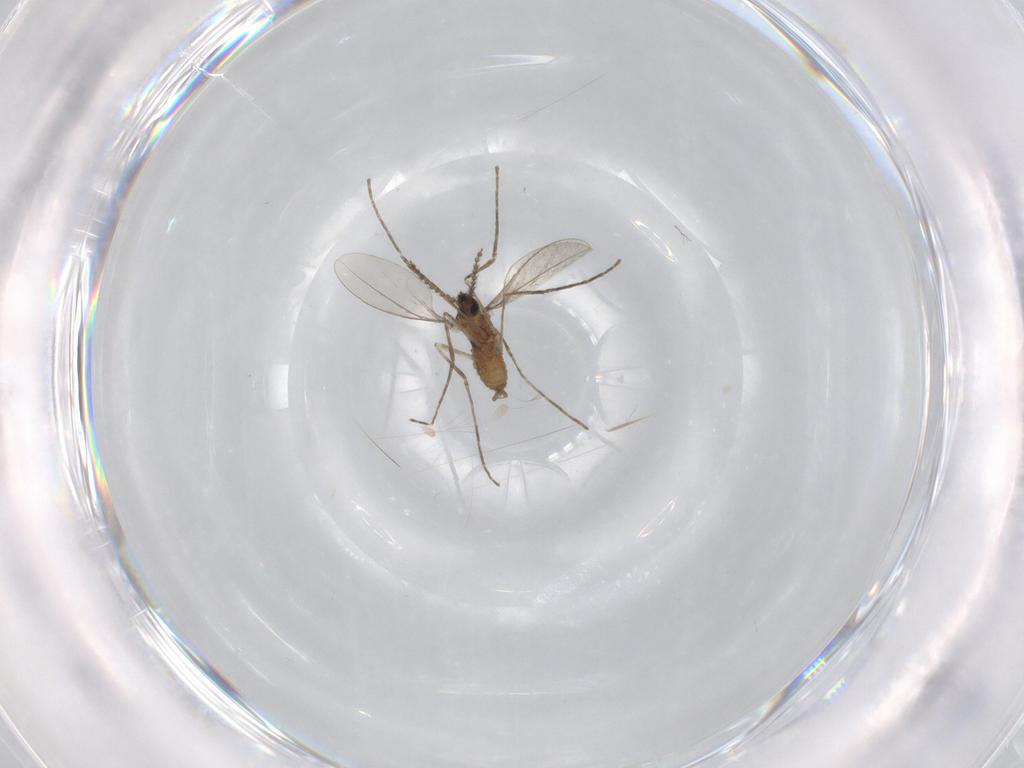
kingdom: Animalia
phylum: Arthropoda
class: Insecta
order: Diptera
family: Cecidomyiidae
